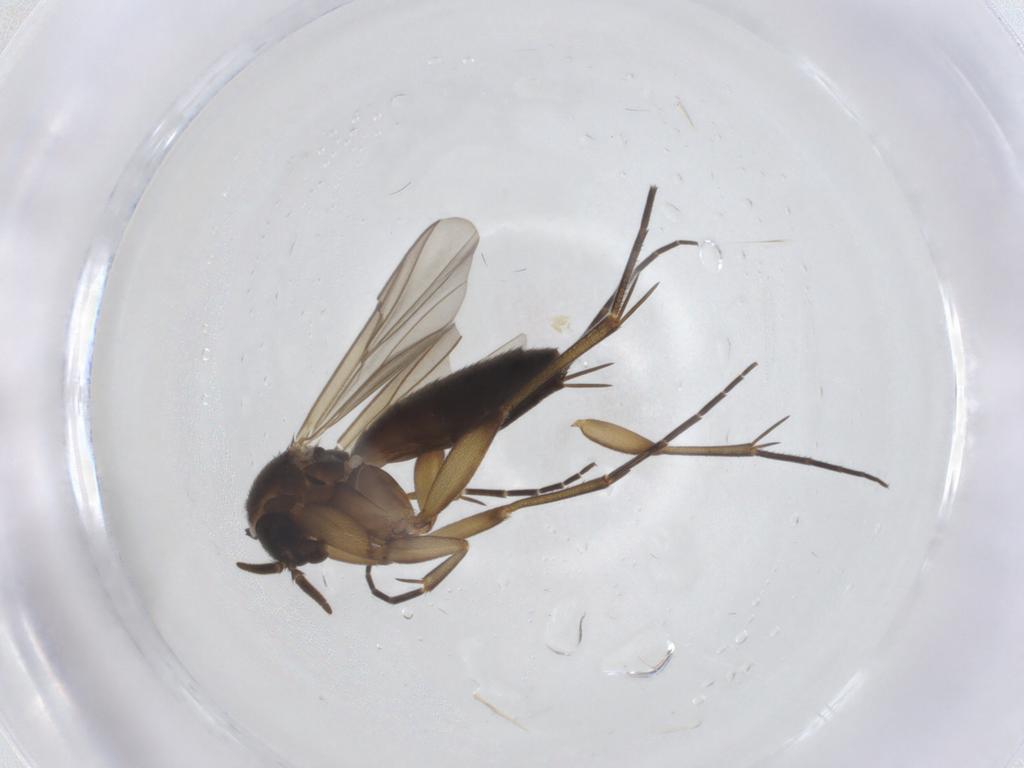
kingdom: Animalia
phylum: Arthropoda
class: Insecta
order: Diptera
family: Mycetophilidae
